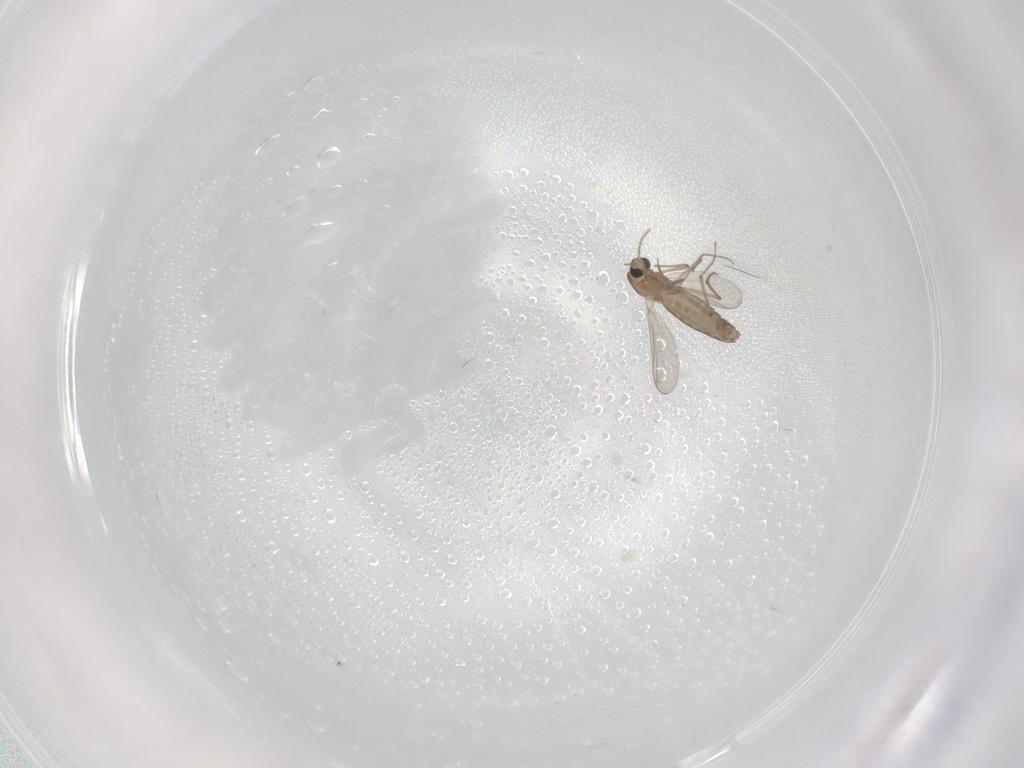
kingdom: Animalia
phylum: Arthropoda
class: Insecta
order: Diptera
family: Chironomidae
